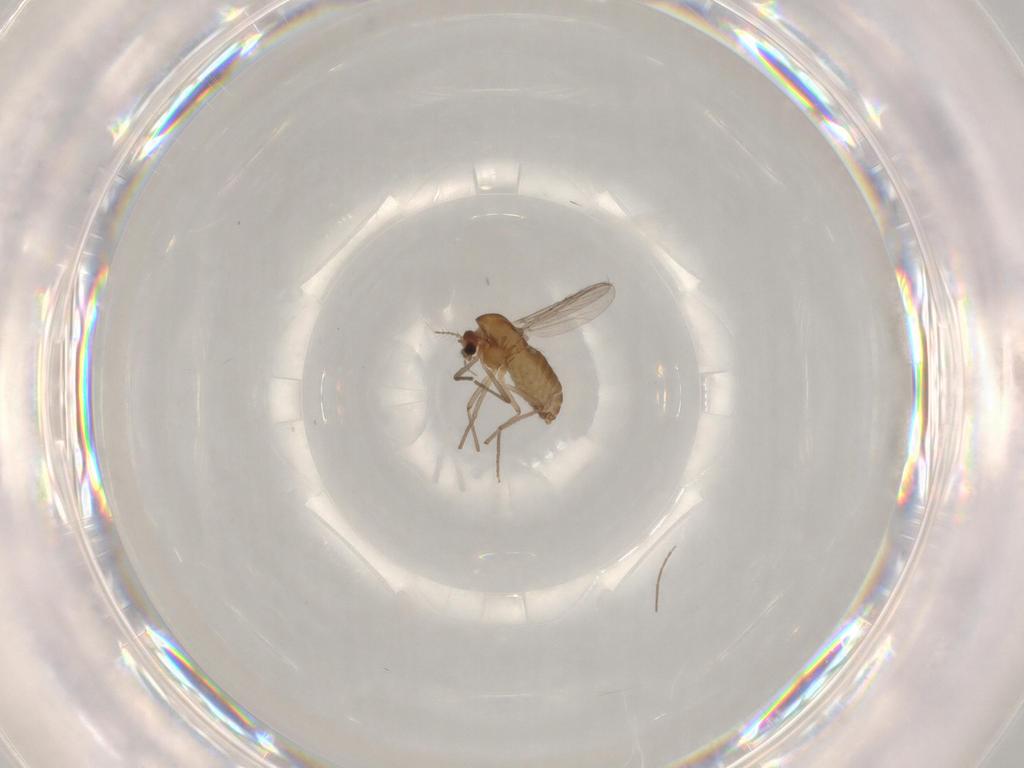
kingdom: Animalia
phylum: Arthropoda
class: Insecta
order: Diptera
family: Chironomidae
